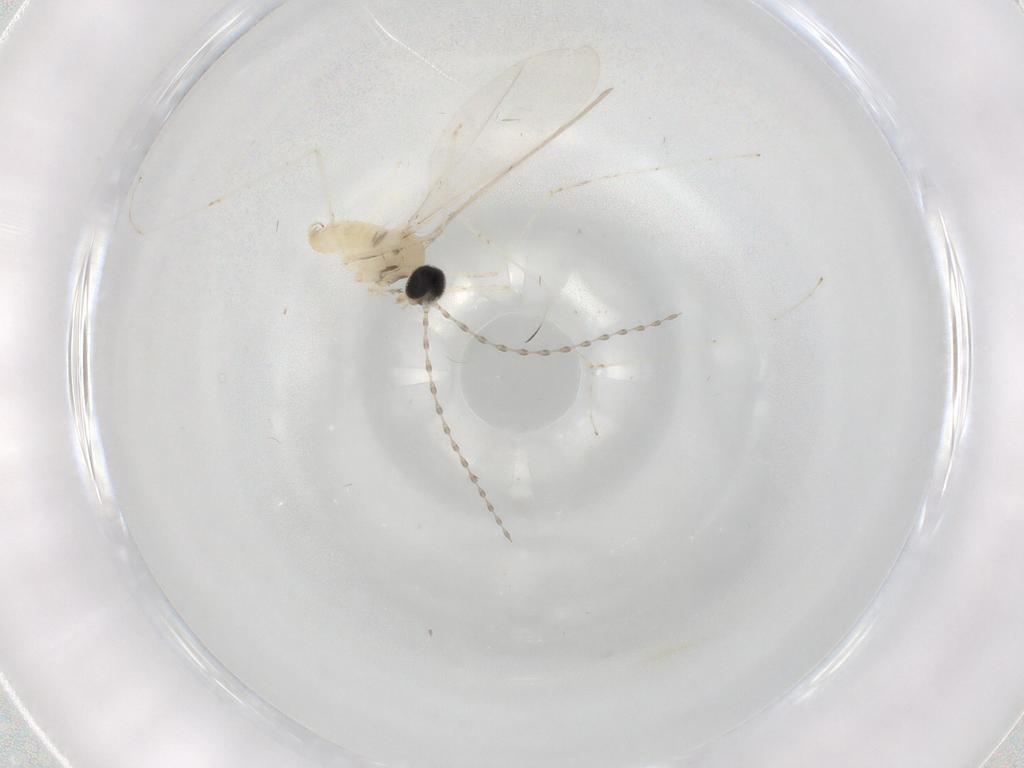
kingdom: Animalia
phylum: Arthropoda
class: Insecta
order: Diptera
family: Cecidomyiidae
